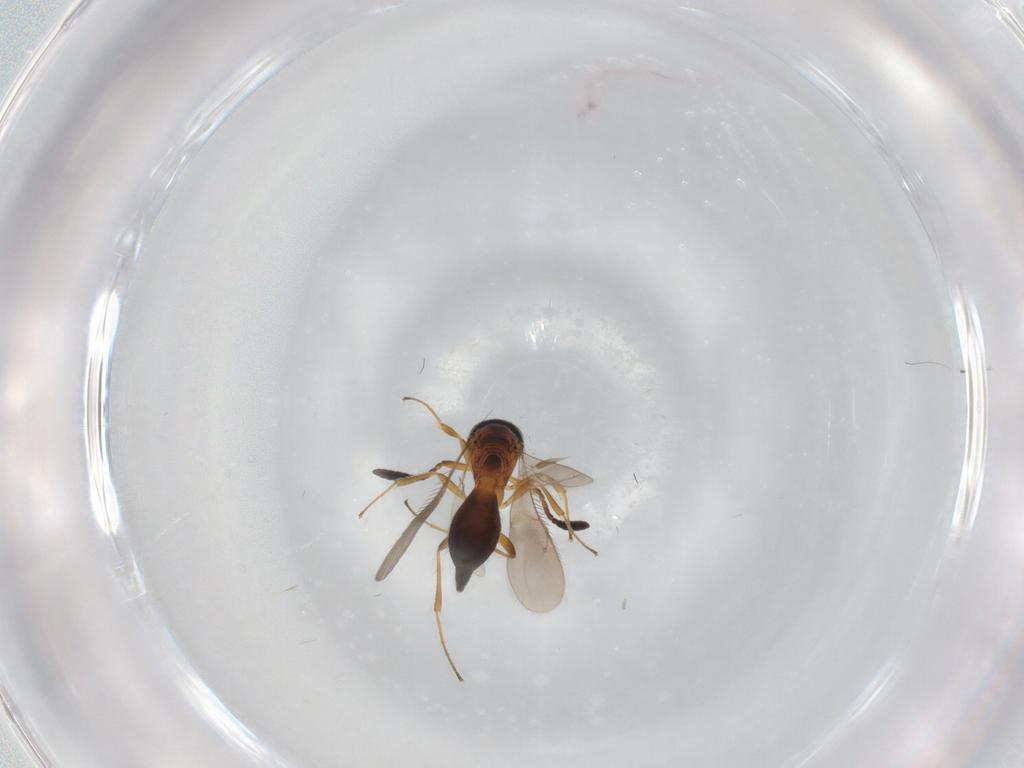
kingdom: Animalia
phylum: Arthropoda
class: Insecta
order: Hymenoptera
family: Scelionidae
